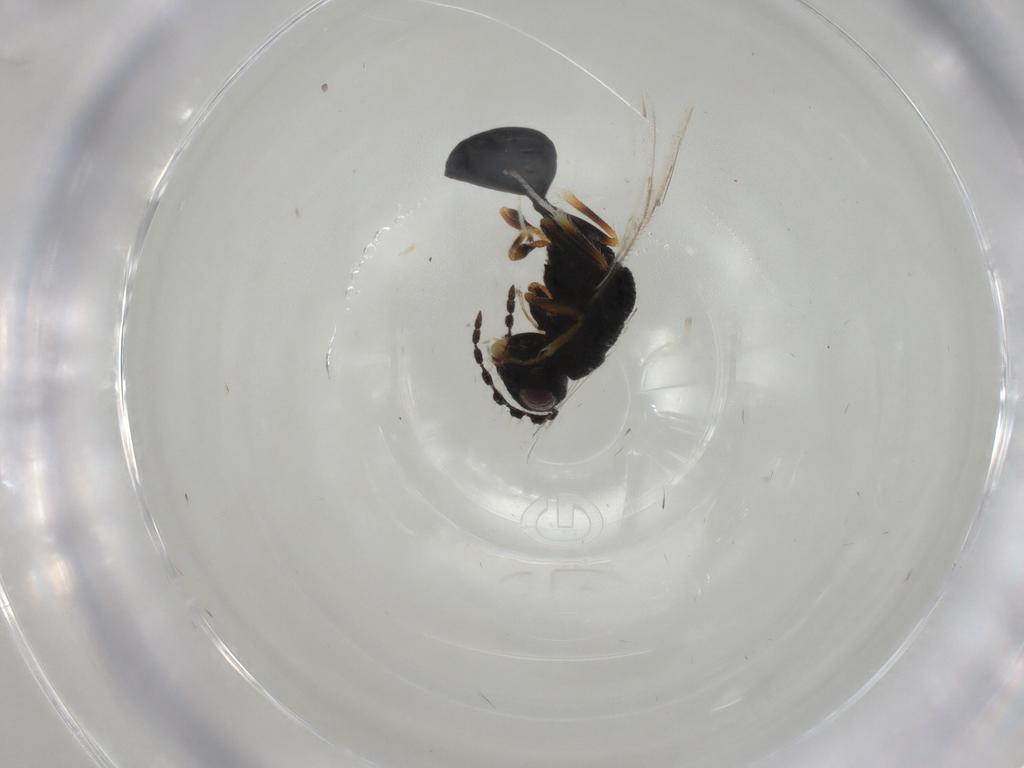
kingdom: Animalia
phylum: Arthropoda
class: Insecta
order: Hymenoptera
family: Eurytomidae
